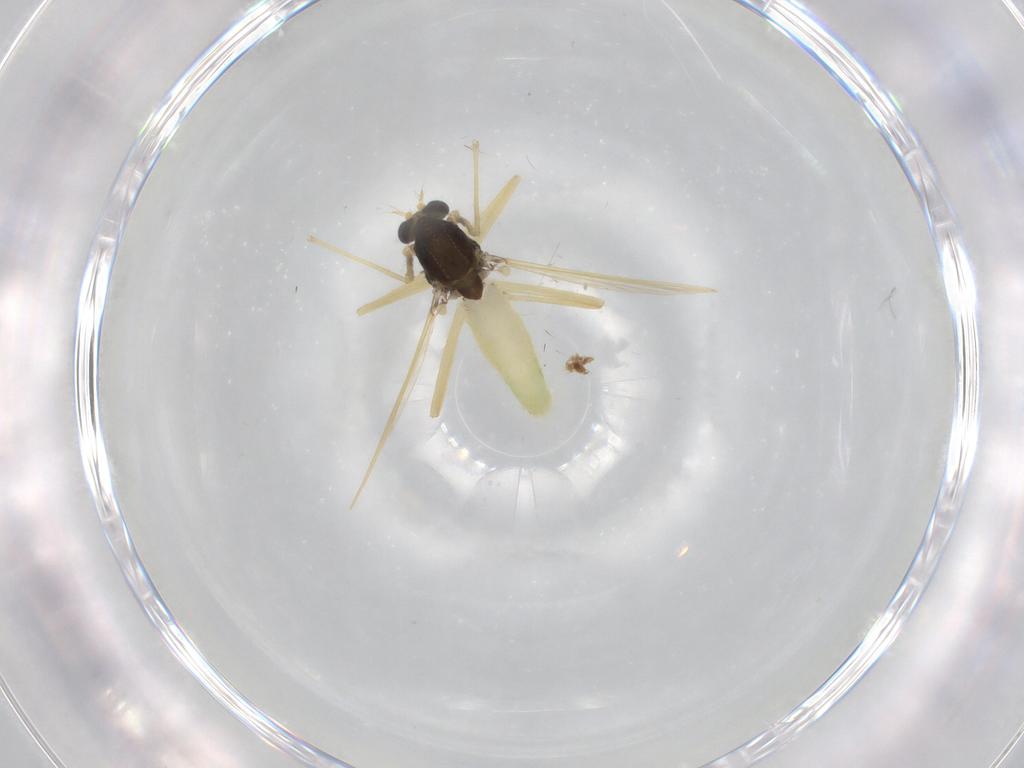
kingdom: Animalia
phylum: Arthropoda
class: Insecta
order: Diptera
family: Chironomidae
